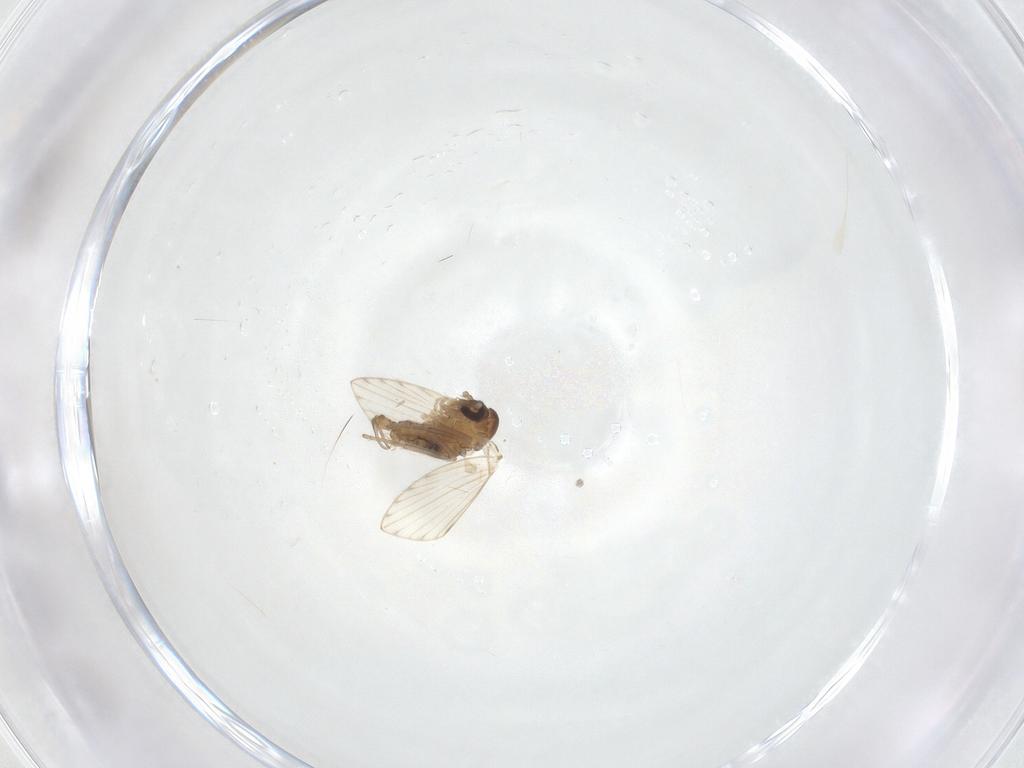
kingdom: Animalia
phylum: Arthropoda
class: Insecta
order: Diptera
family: Psychodidae
